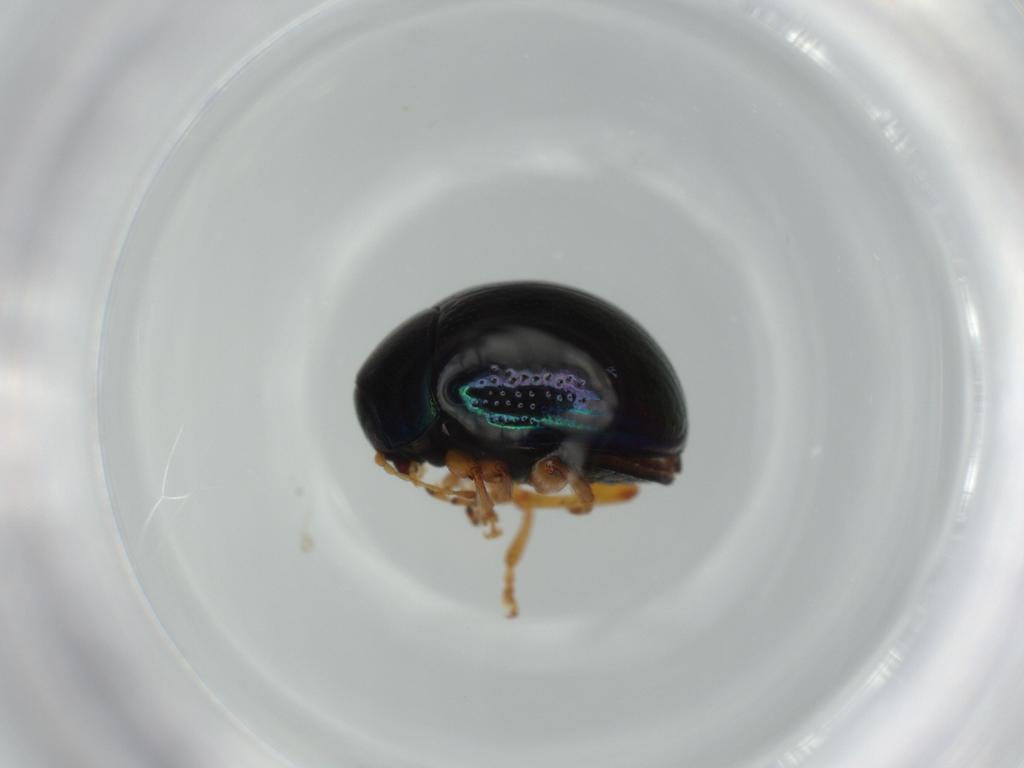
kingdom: Animalia
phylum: Arthropoda
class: Insecta
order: Coleoptera
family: Chrysomelidae
